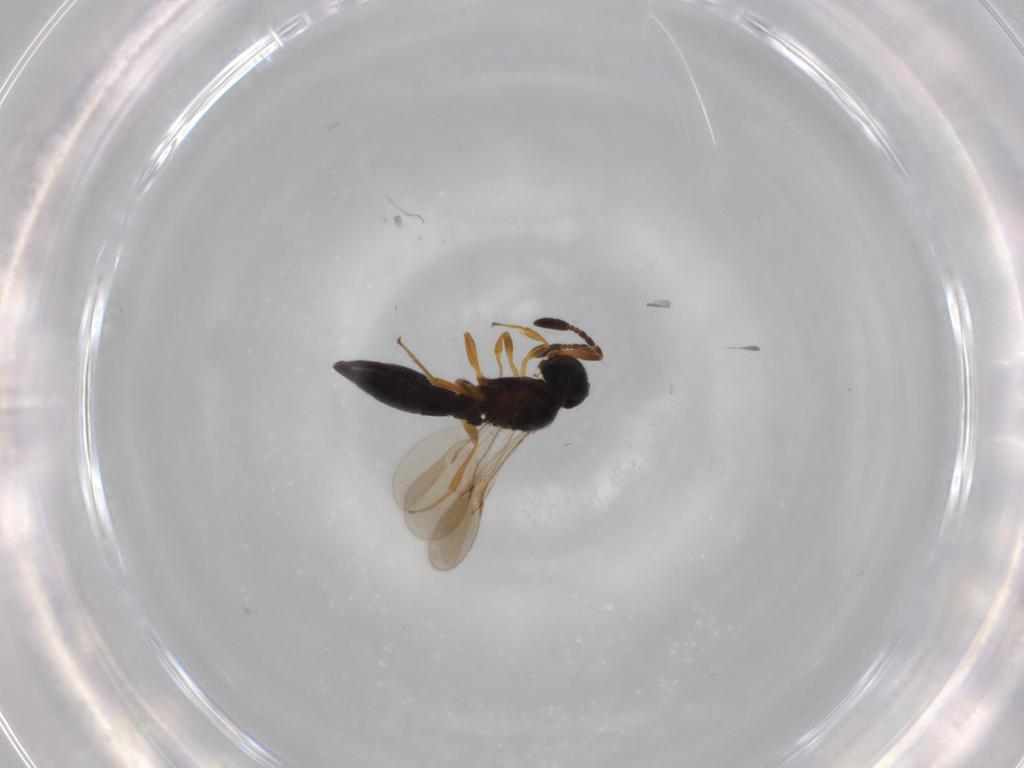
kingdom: Animalia
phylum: Arthropoda
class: Insecta
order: Hymenoptera
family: Scelionidae
